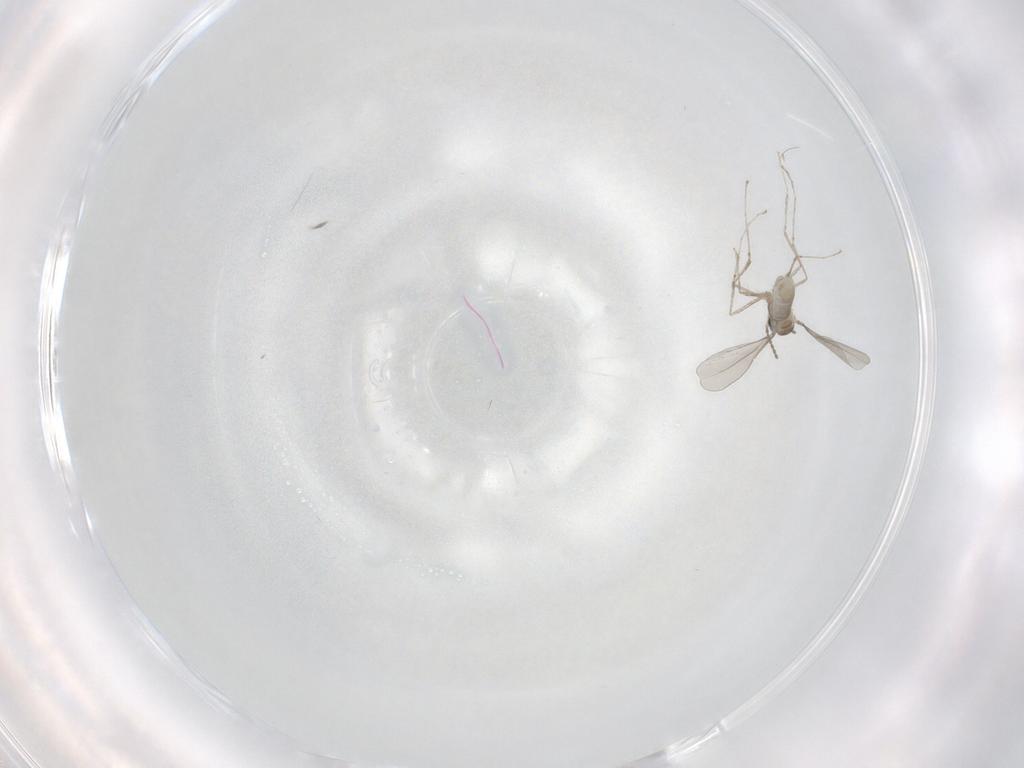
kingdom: Animalia
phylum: Arthropoda
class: Insecta
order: Diptera
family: Cecidomyiidae
